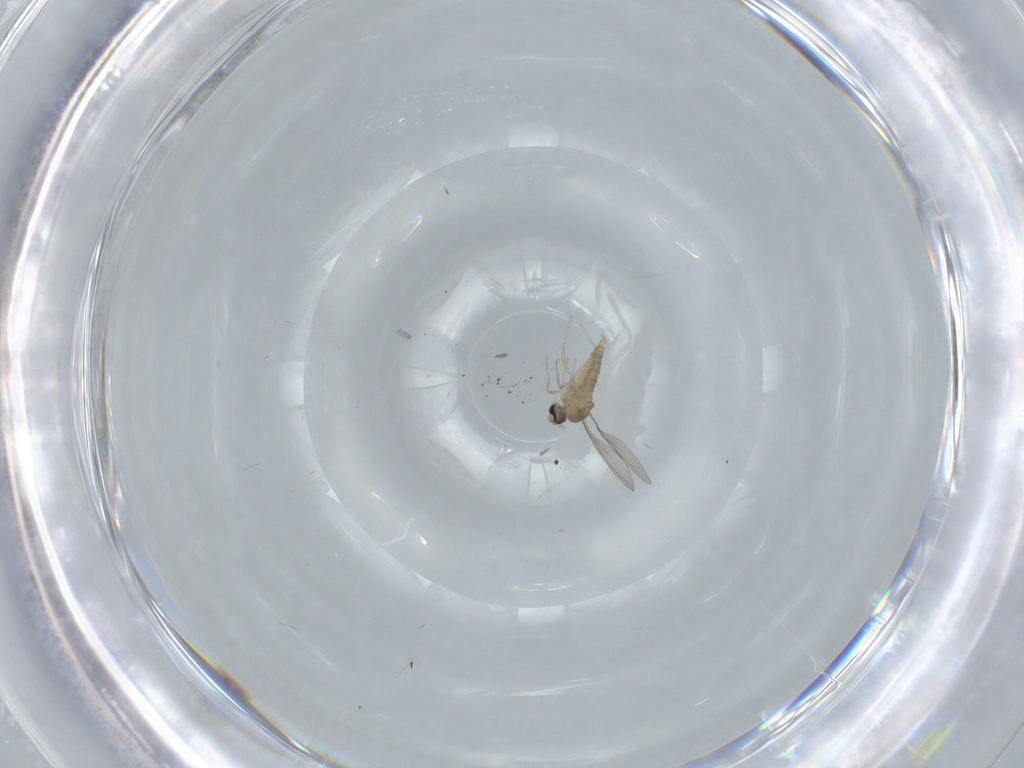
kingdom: Animalia
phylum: Arthropoda
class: Insecta
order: Diptera
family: Cecidomyiidae
